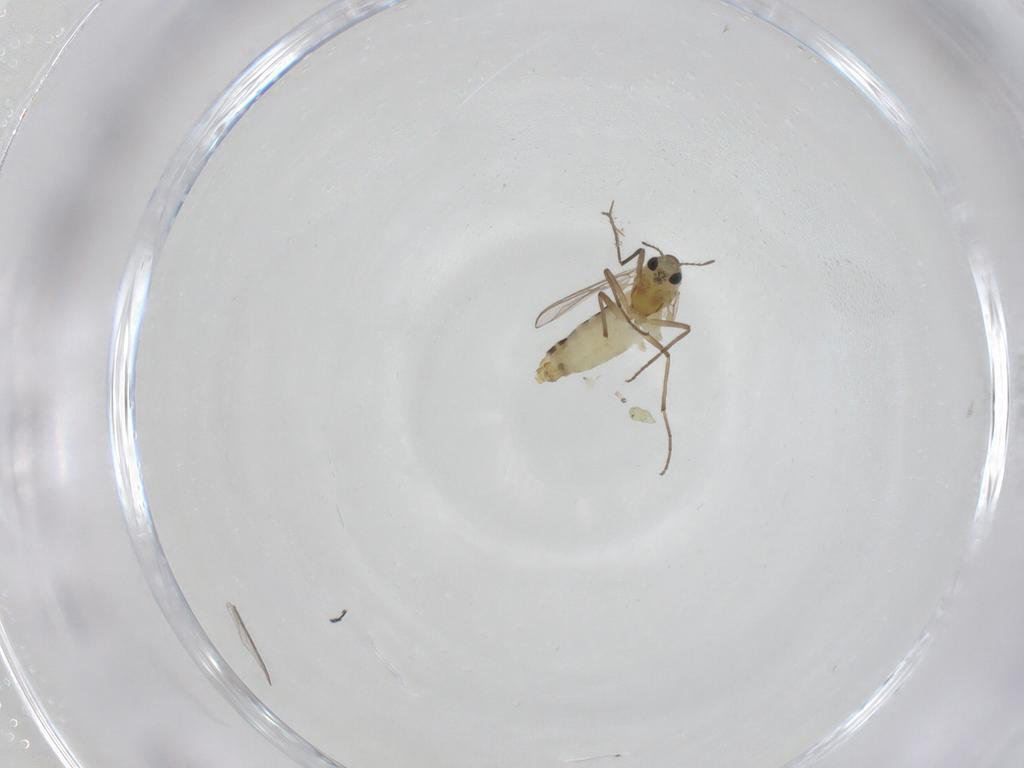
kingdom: Animalia
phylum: Arthropoda
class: Insecta
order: Diptera
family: Chironomidae
